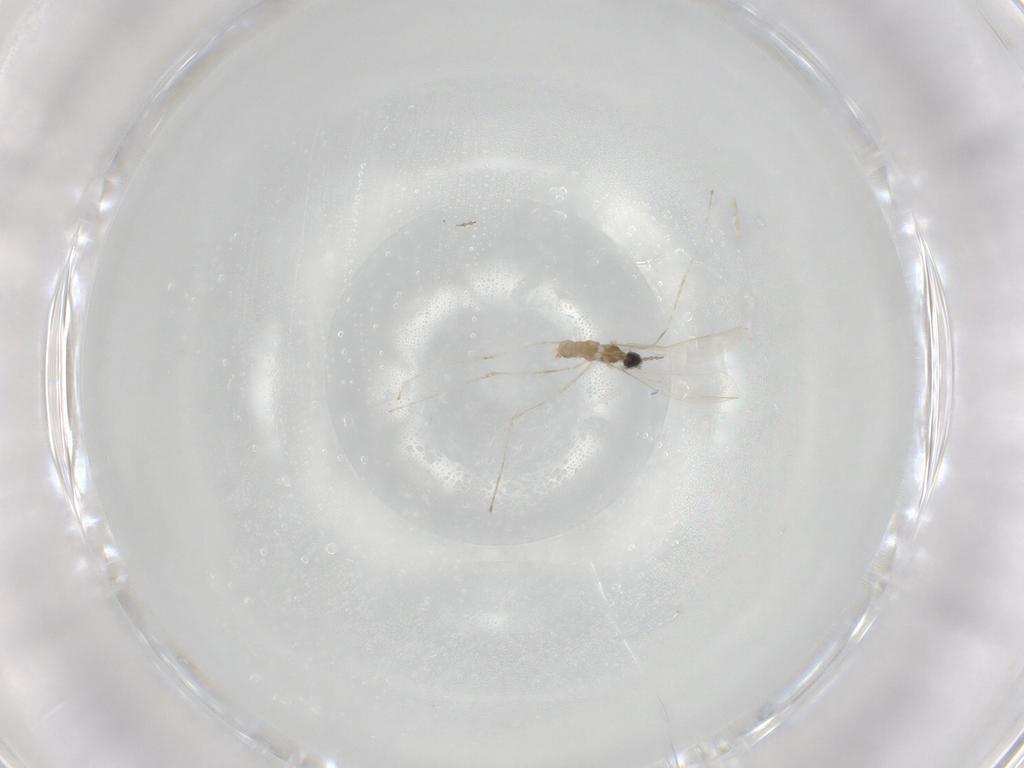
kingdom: Animalia
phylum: Arthropoda
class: Insecta
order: Diptera
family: Cecidomyiidae
